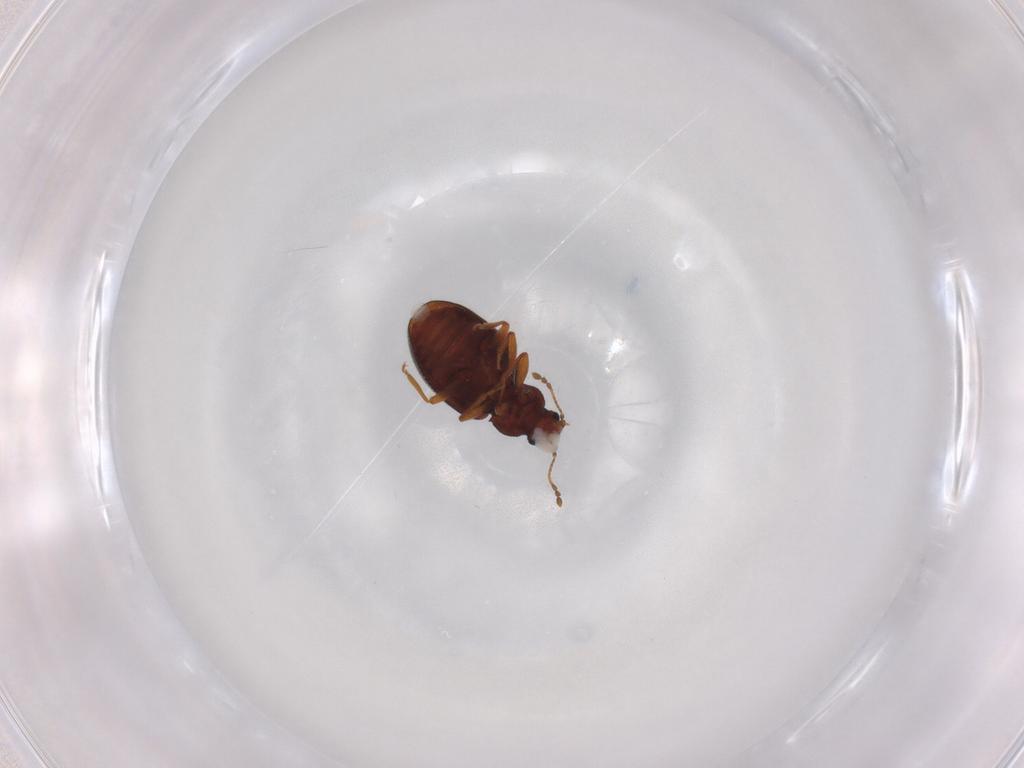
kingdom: Animalia
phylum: Arthropoda
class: Insecta
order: Coleoptera
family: Latridiidae
